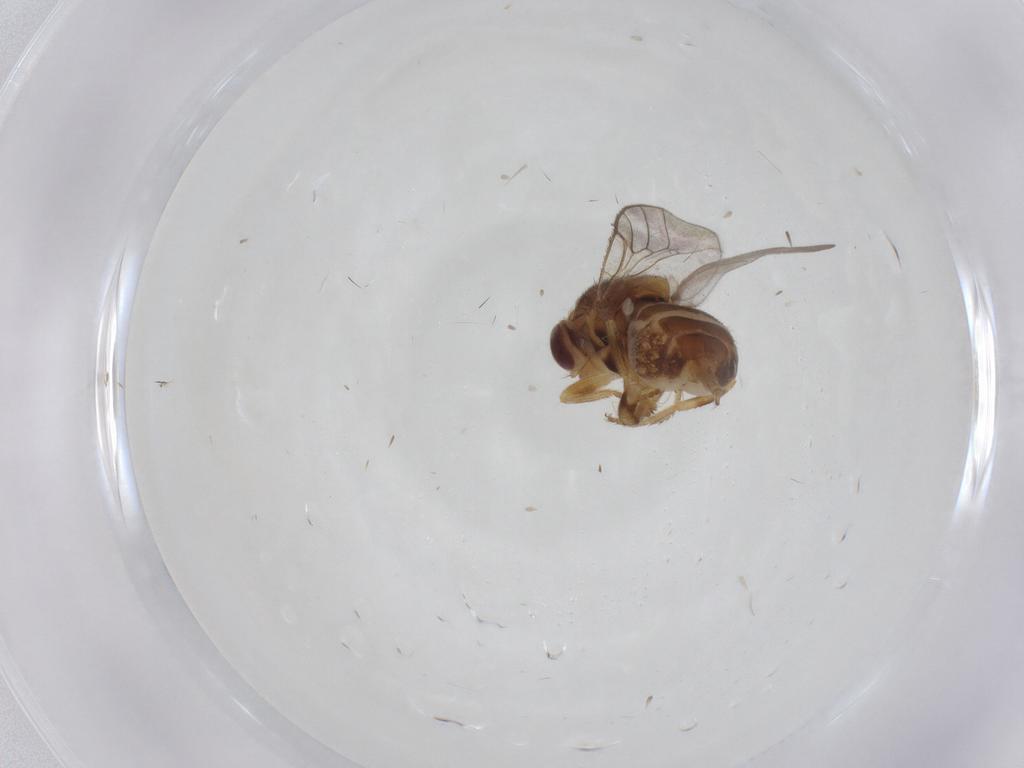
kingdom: Animalia
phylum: Arthropoda
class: Insecta
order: Diptera
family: Chloropidae
